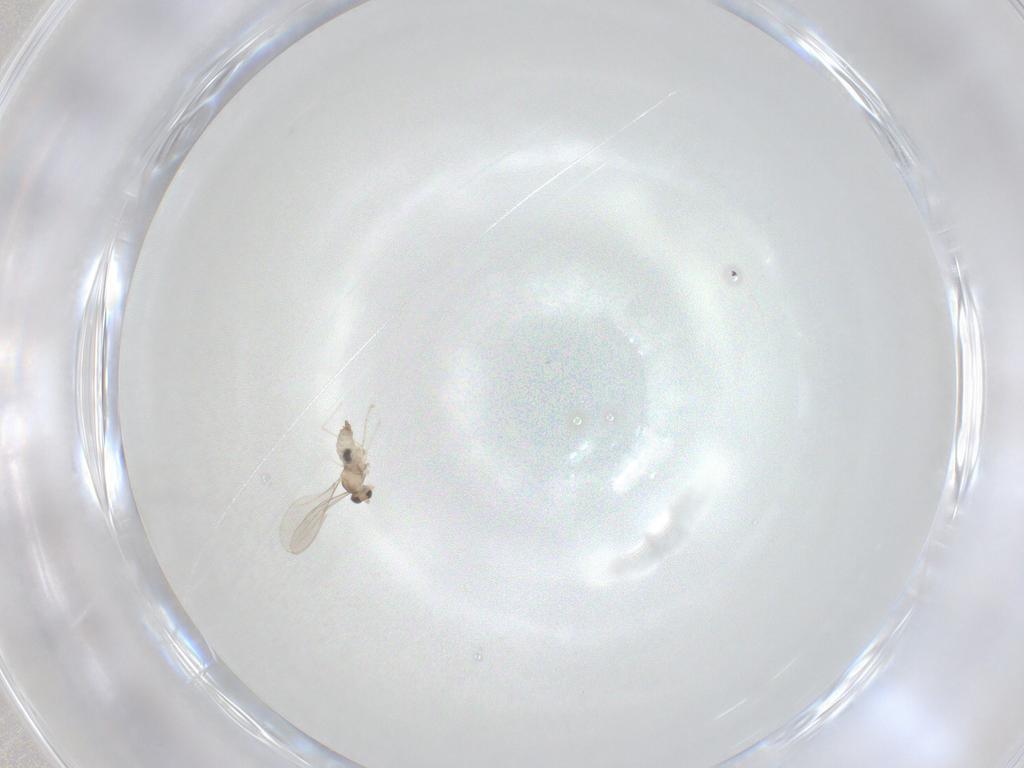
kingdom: Animalia
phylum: Arthropoda
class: Insecta
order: Diptera
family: Cecidomyiidae
